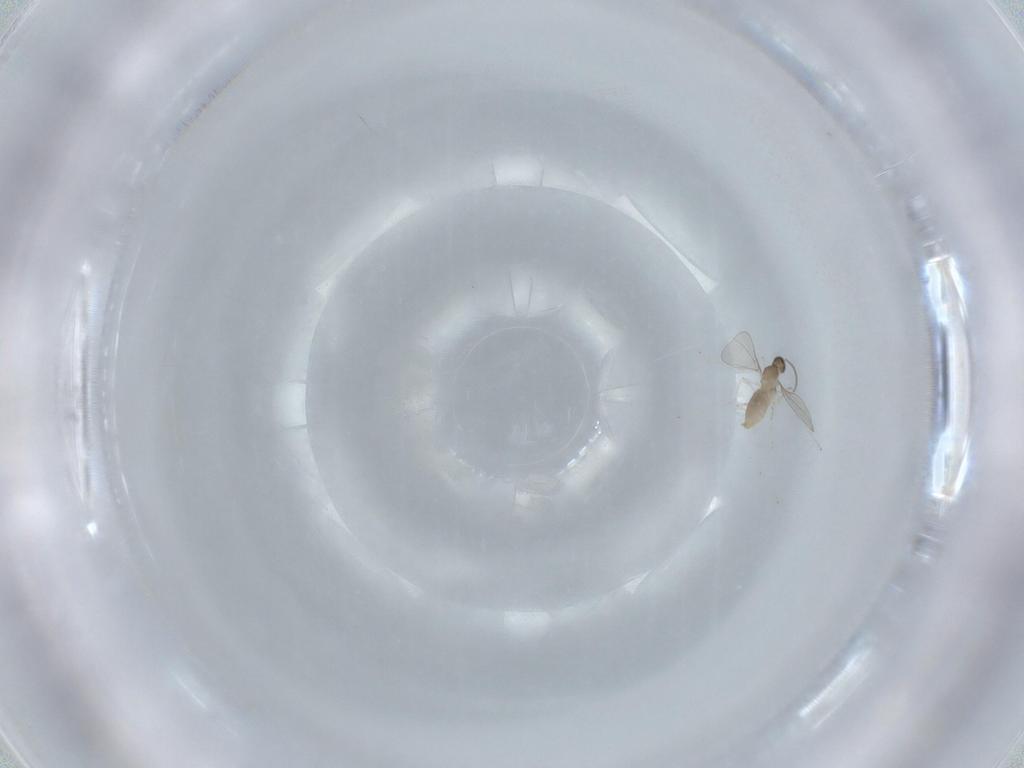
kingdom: Animalia
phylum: Arthropoda
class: Insecta
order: Diptera
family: Cecidomyiidae
